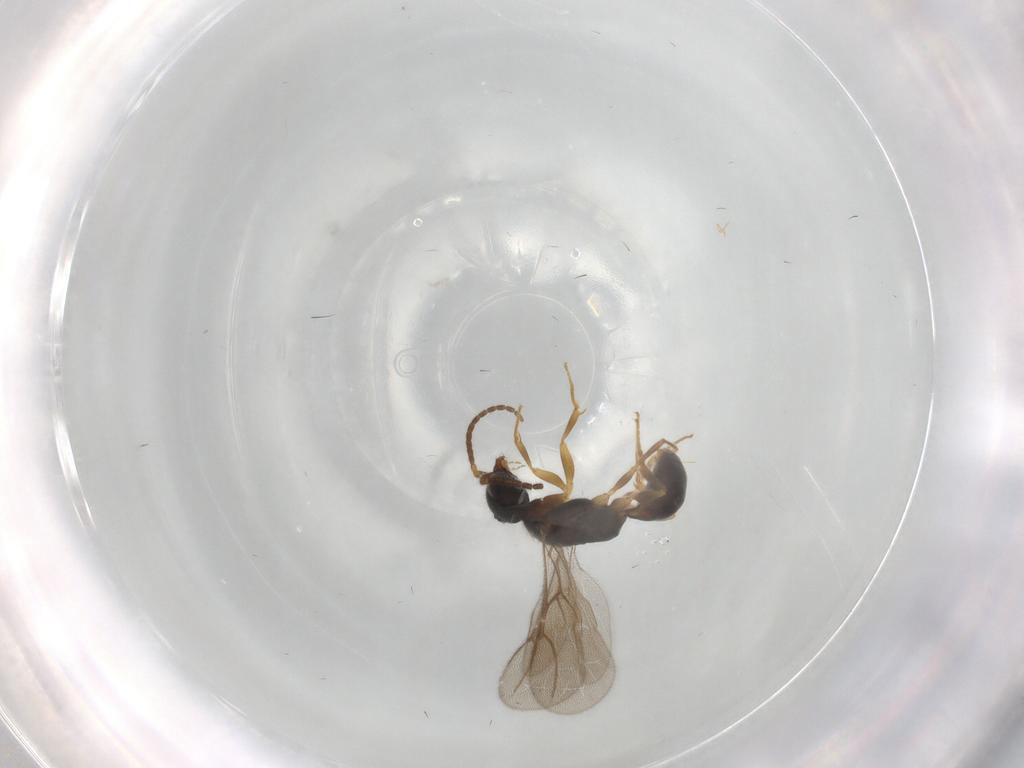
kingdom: Animalia
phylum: Arthropoda
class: Insecta
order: Hymenoptera
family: Bethylidae
